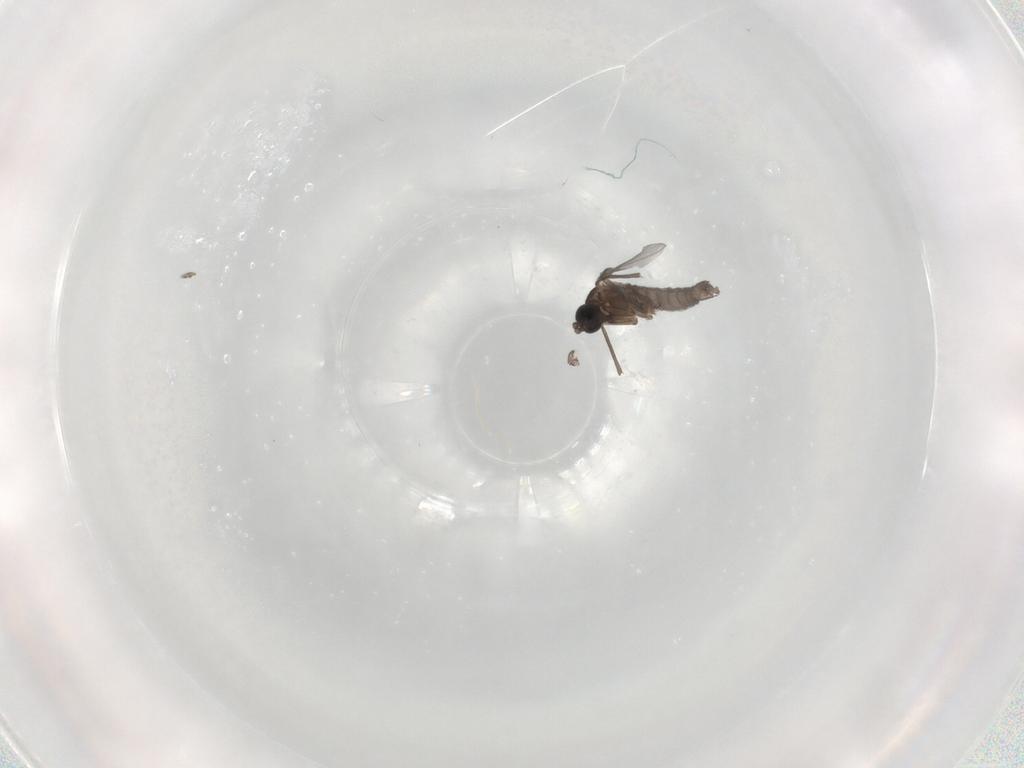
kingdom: Animalia
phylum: Arthropoda
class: Insecta
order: Diptera
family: Sciaridae
